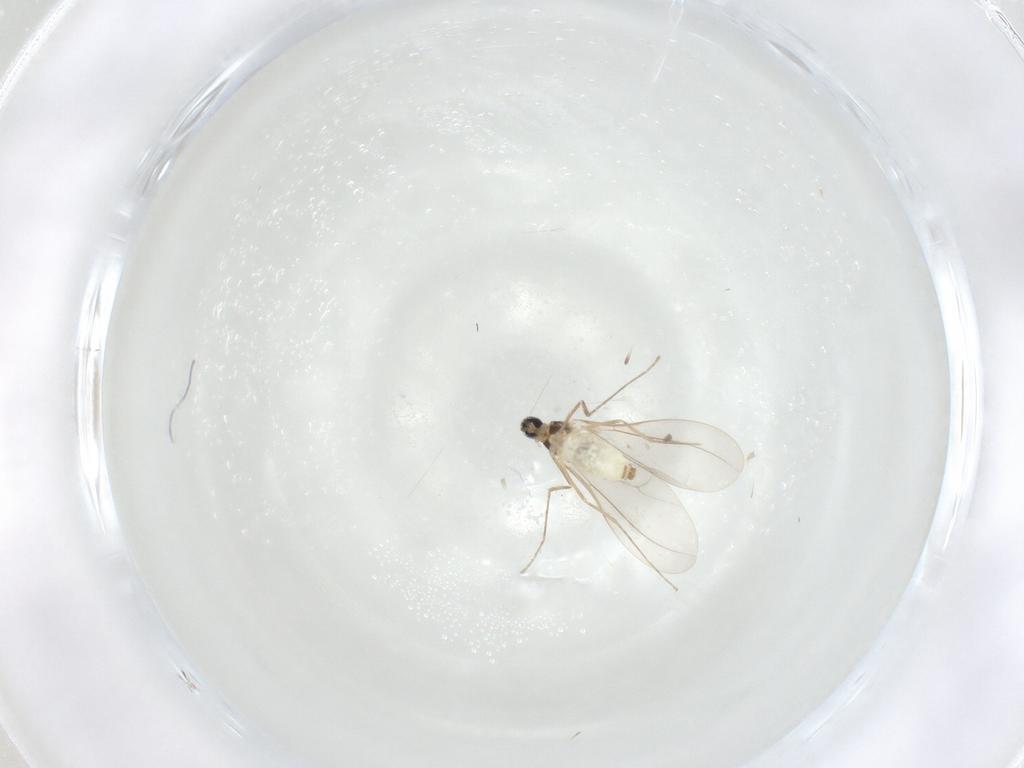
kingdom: Animalia
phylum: Arthropoda
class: Insecta
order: Diptera
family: Cecidomyiidae
